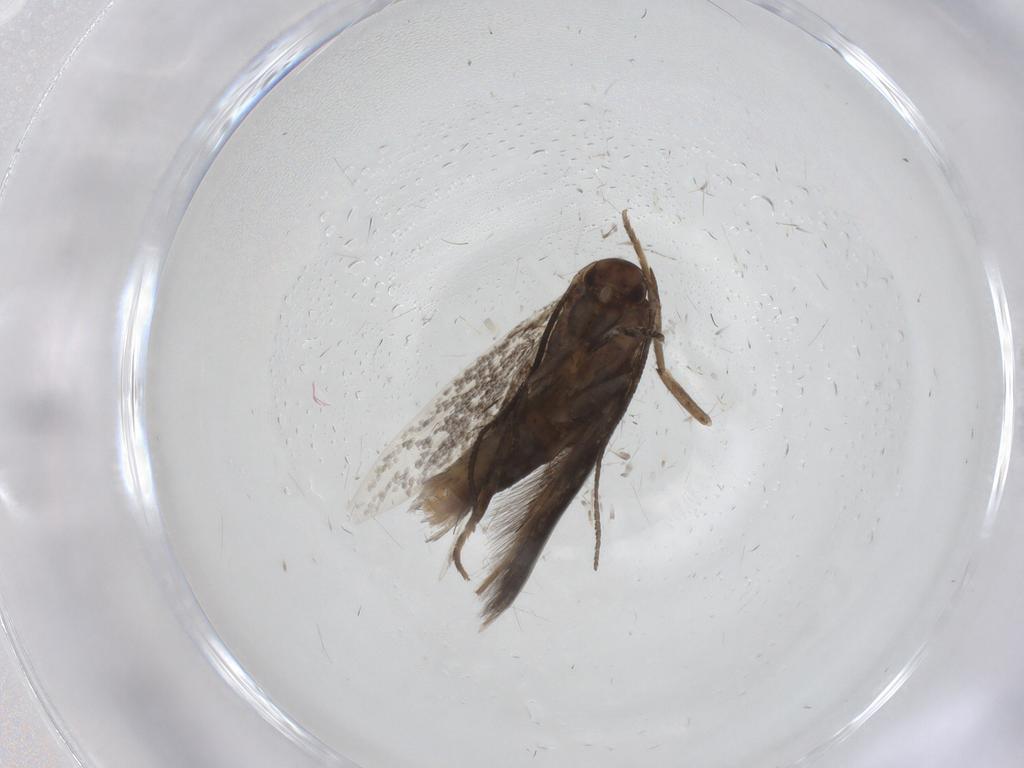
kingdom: Animalia
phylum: Arthropoda
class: Insecta
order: Lepidoptera
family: Elachistidae
